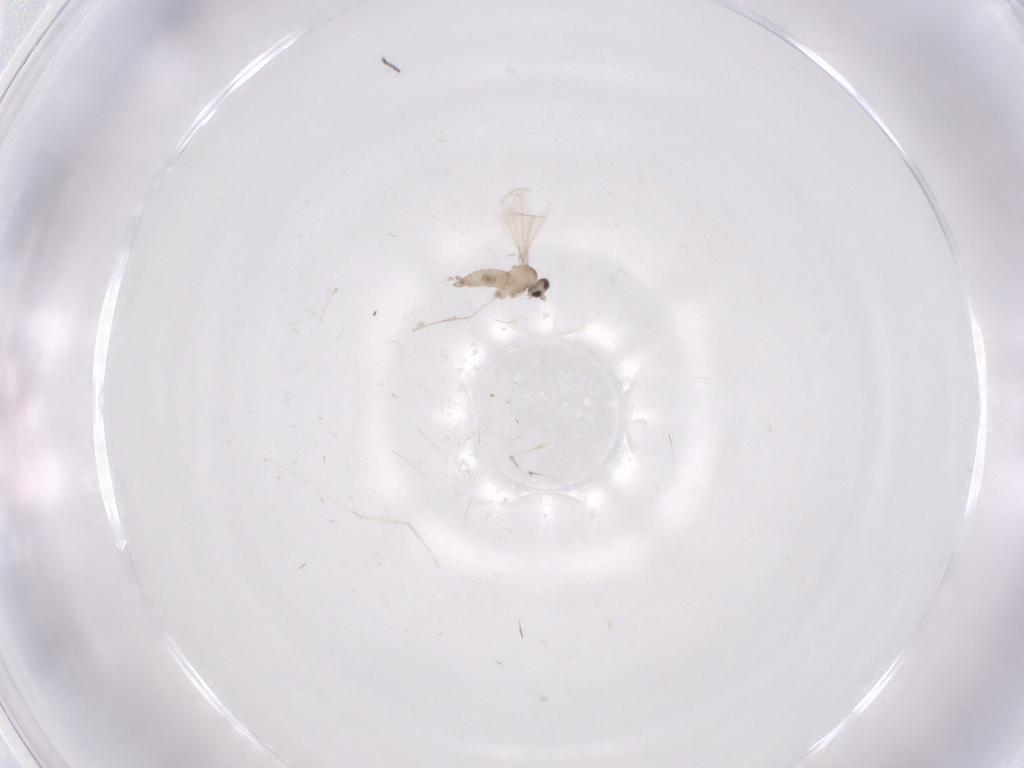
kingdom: Animalia
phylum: Arthropoda
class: Insecta
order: Diptera
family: Cecidomyiidae
